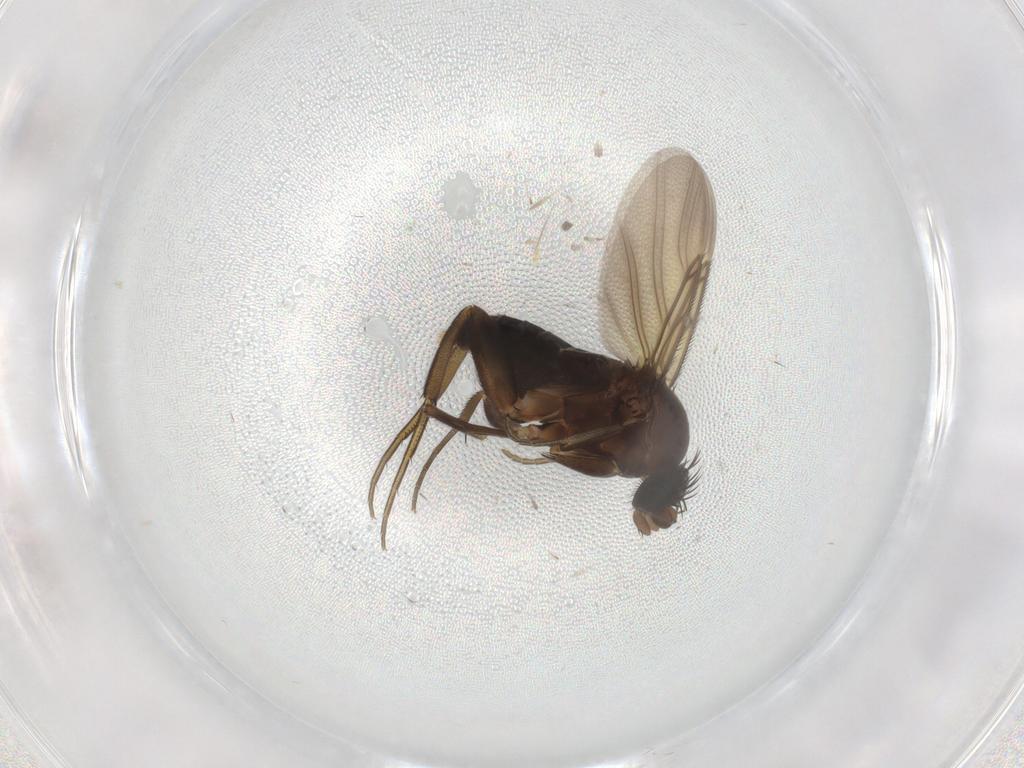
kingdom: Animalia
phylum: Arthropoda
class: Insecta
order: Diptera
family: Phoridae
